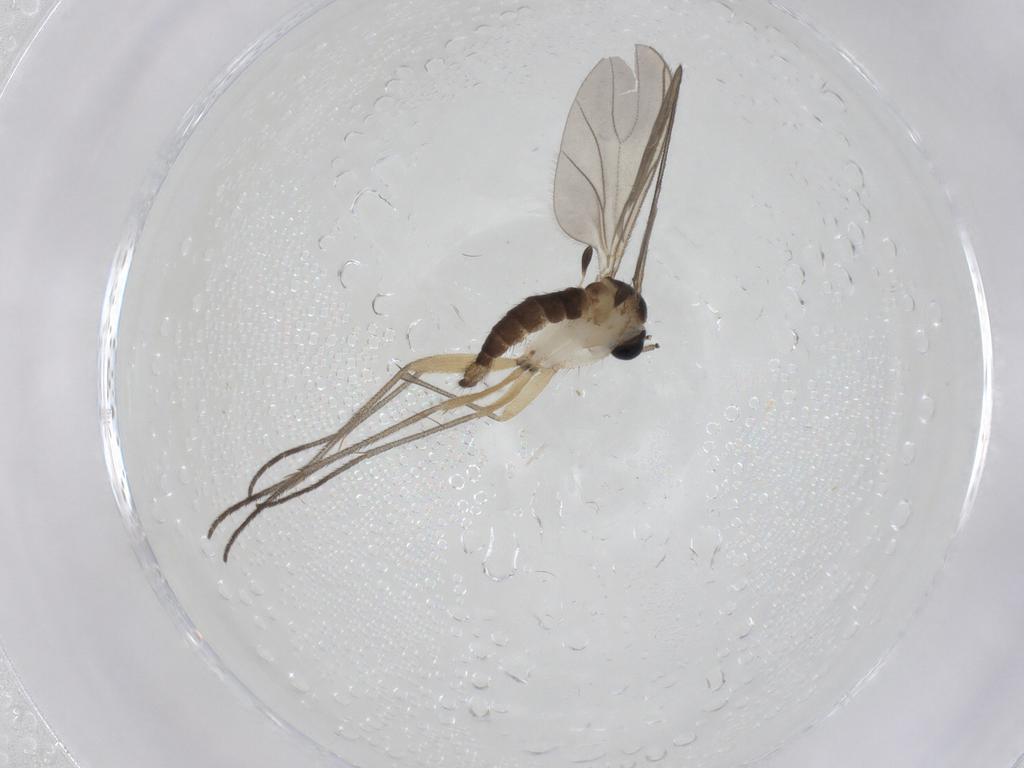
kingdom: Animalia
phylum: Arthropoda
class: Insecta
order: Diptera
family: Sciaridae
